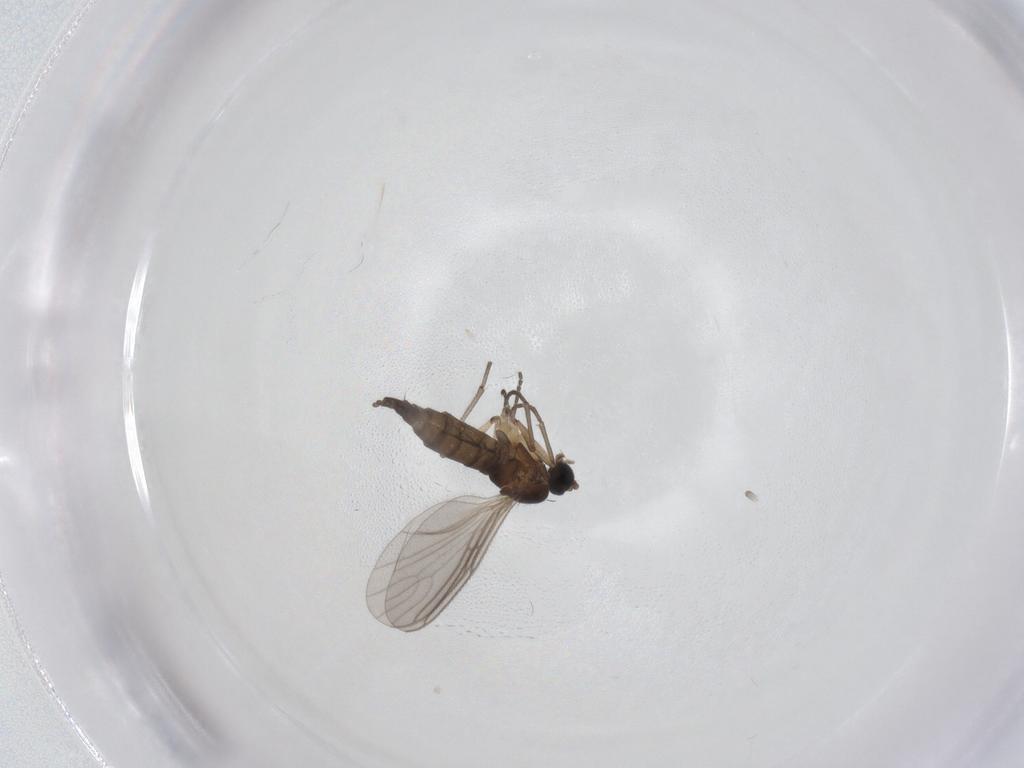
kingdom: Animalia
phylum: Arthropoda
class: Insecta
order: Diptera
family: Sciaridae
